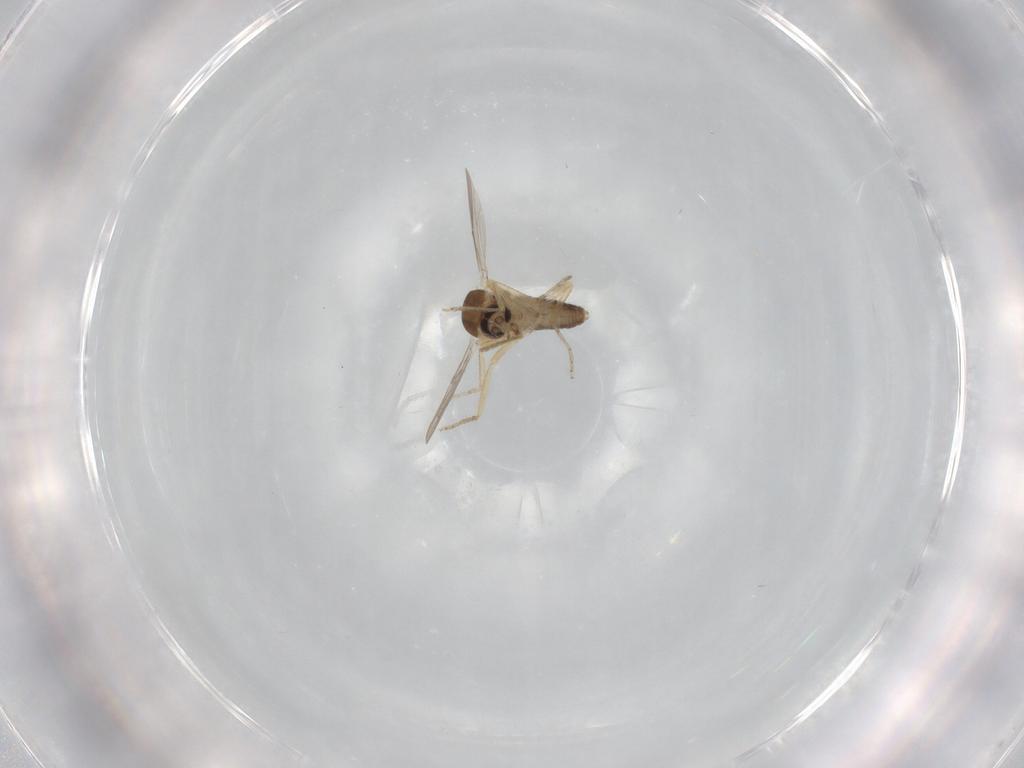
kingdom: Animalia
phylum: Arthropoda
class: Insecta
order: Diptera
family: Ceratopogonidae
